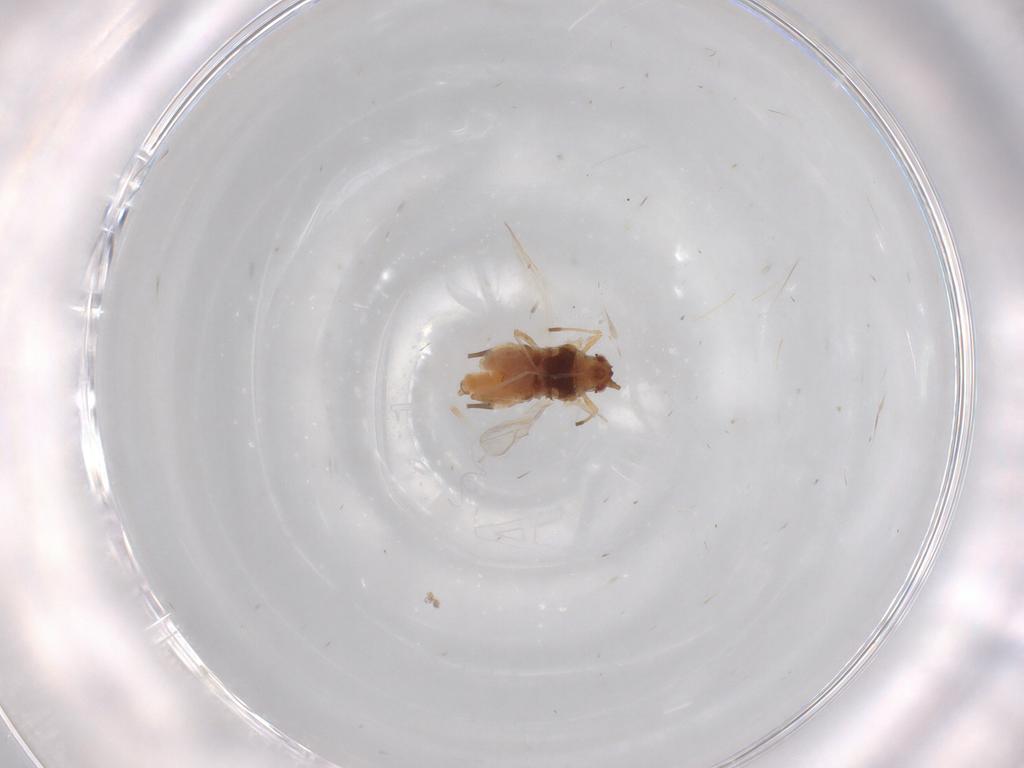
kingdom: Animalia
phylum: Arthropoda
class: Insecta
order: Hemiptera
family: Aphididae
